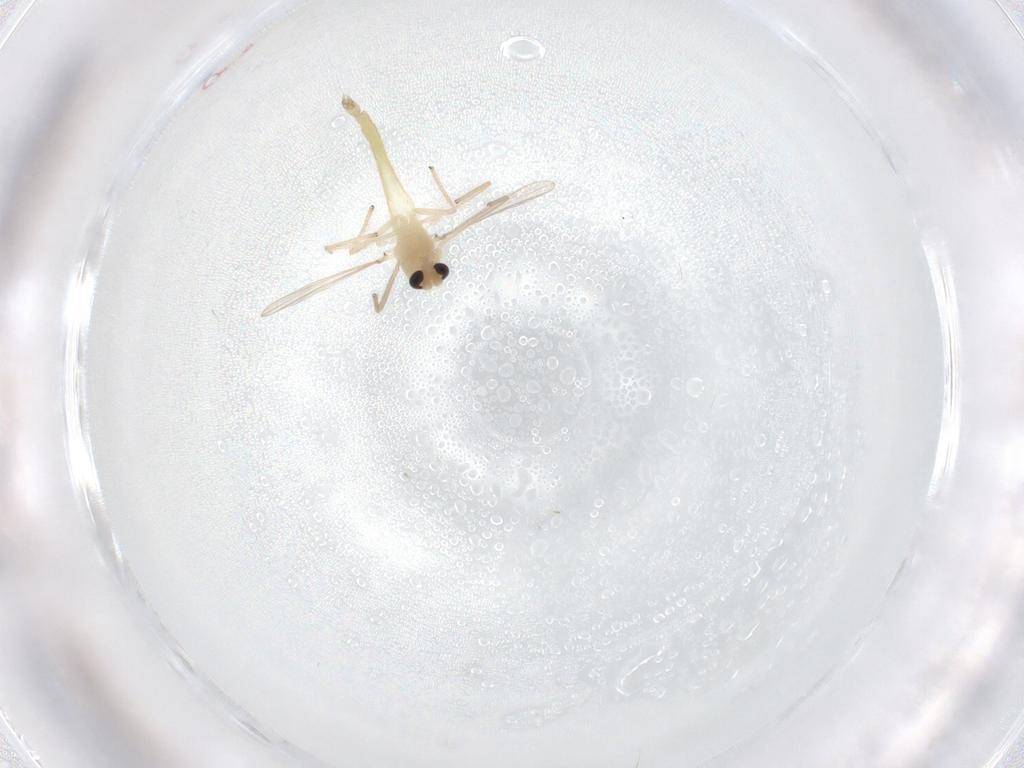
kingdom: Animalia
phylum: Arthropoda
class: Insecta
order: Diptera
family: Chironomidae
